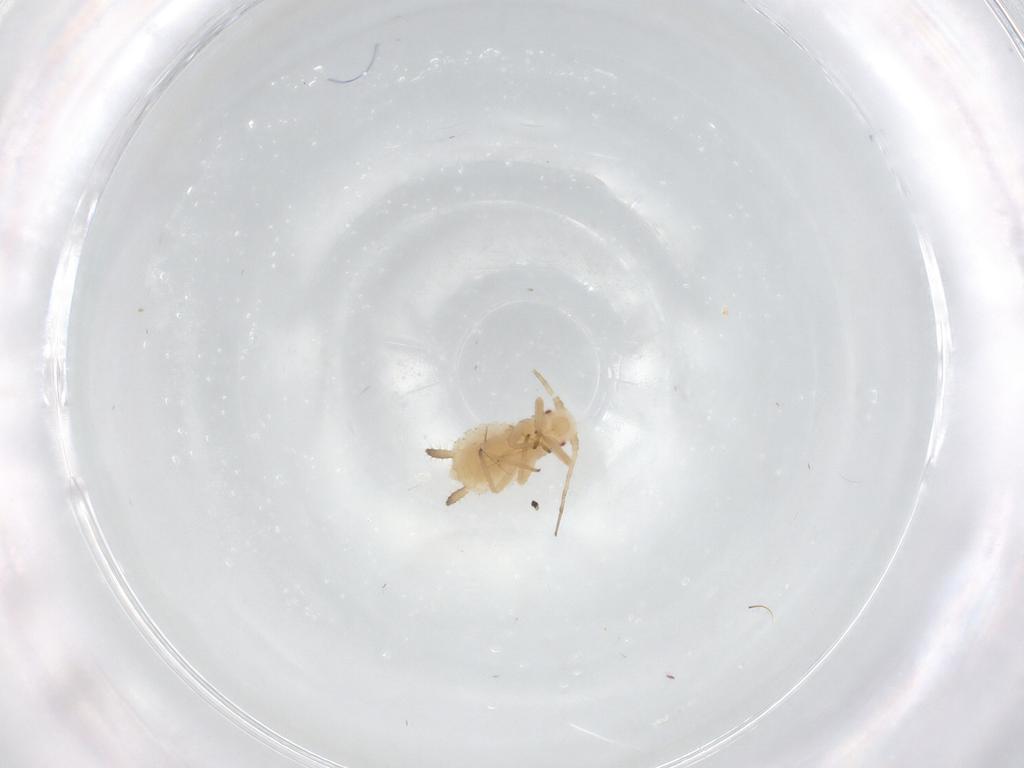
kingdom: Animalia
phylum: Arthropoda
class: Insecta
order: Hemiptera
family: Aphididae
